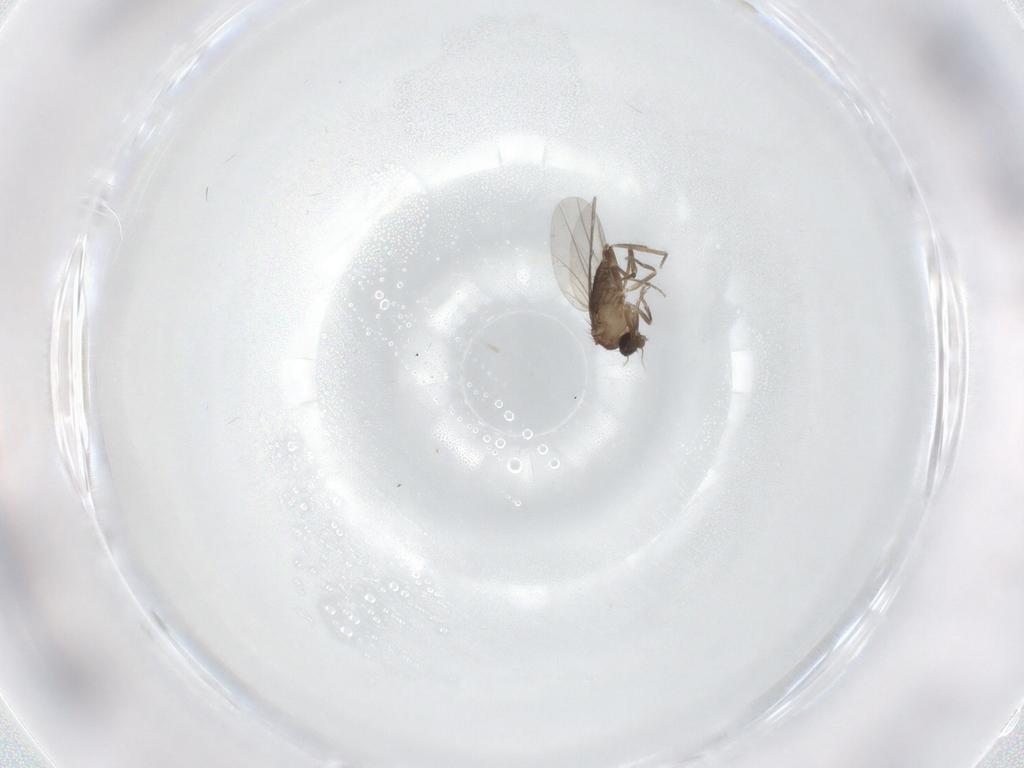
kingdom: Animalia
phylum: Arthropoda
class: Insecta
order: Diptera
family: Phoridae
